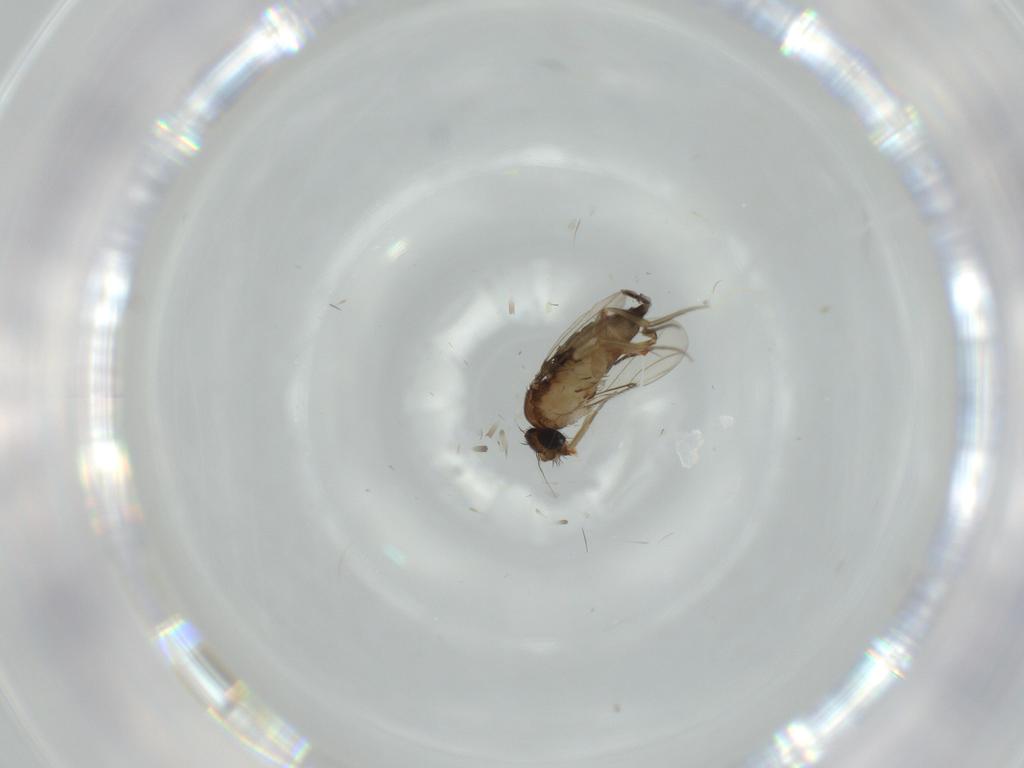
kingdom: Animalia
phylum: Arthropoda
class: Insecta
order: Diptera
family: Phoridae
